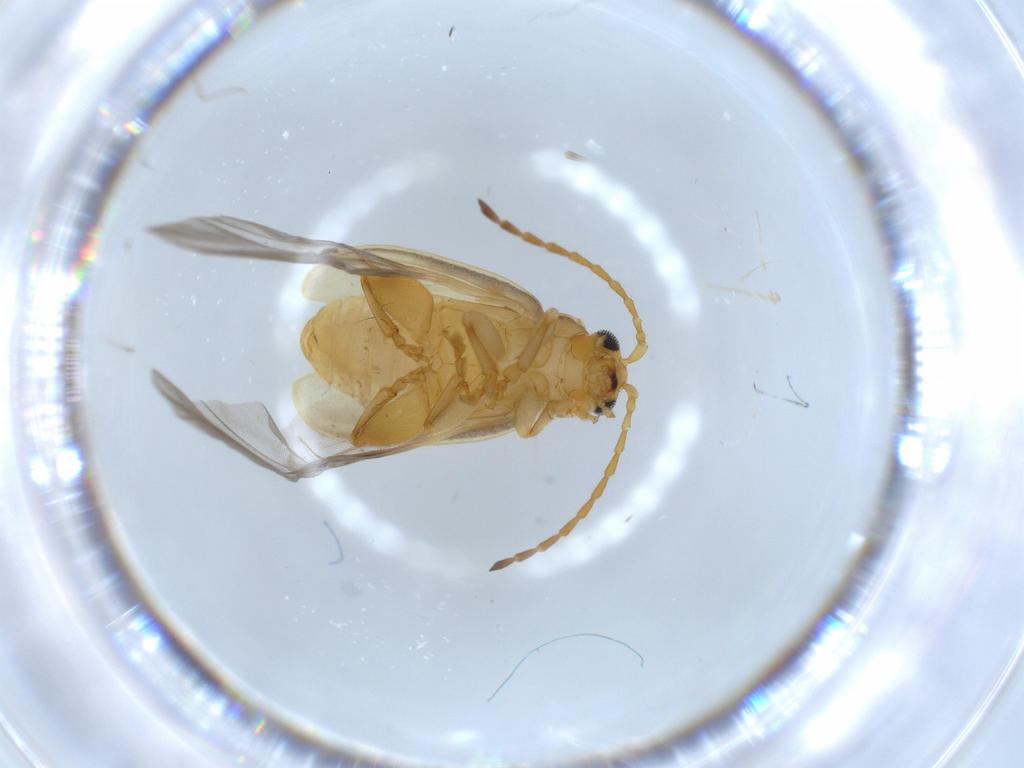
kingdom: Animalia
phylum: Arthropoda
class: Insecta
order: Coleoptera
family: Chrysomelidae
